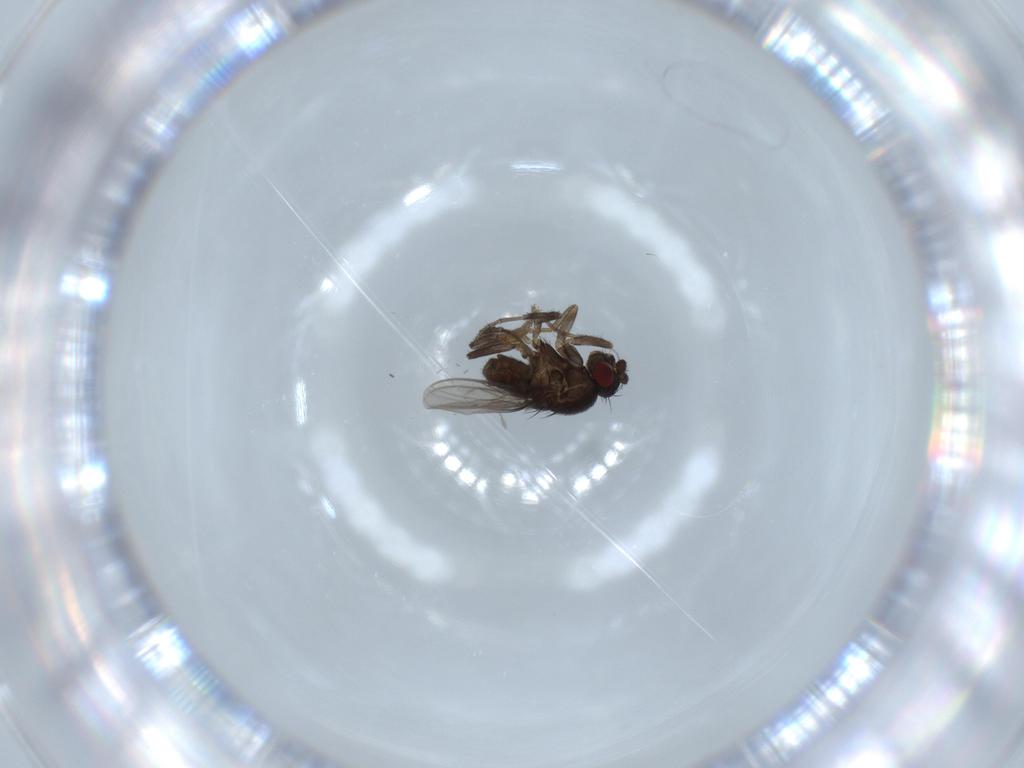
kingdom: Animalia
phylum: Arthropoda
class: Insecta
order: Diptera
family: Sphaeroceridae
